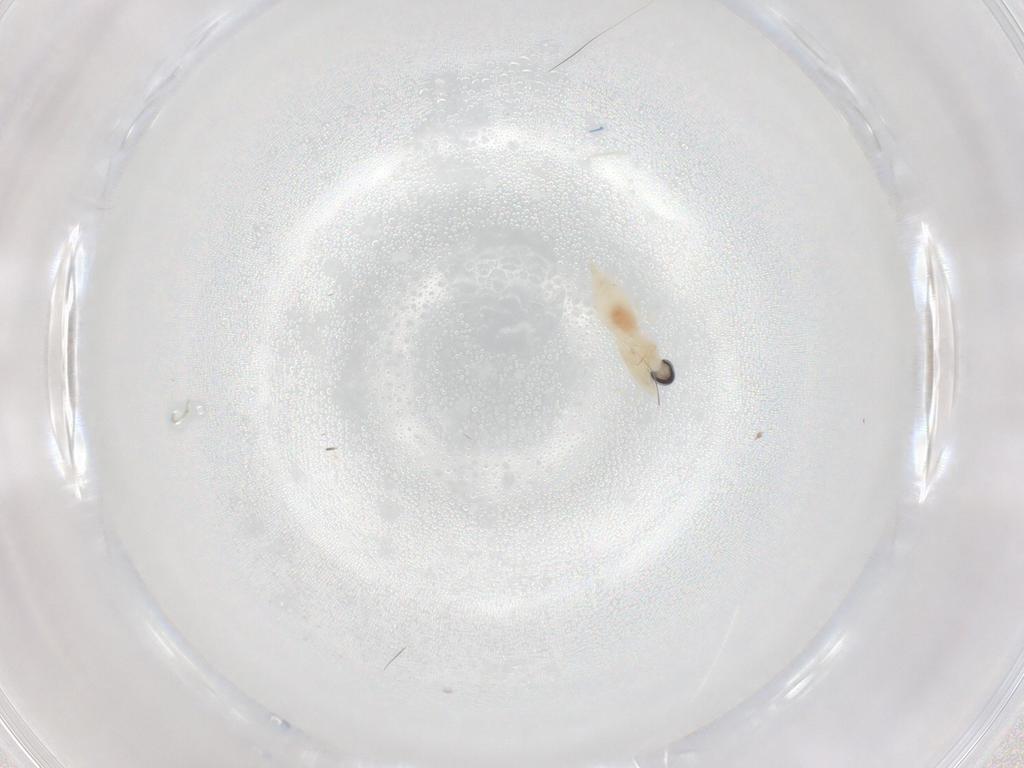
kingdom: Animalia
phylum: Arthropoda
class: Insecta
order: Diptera
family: Cecidomyiidae
